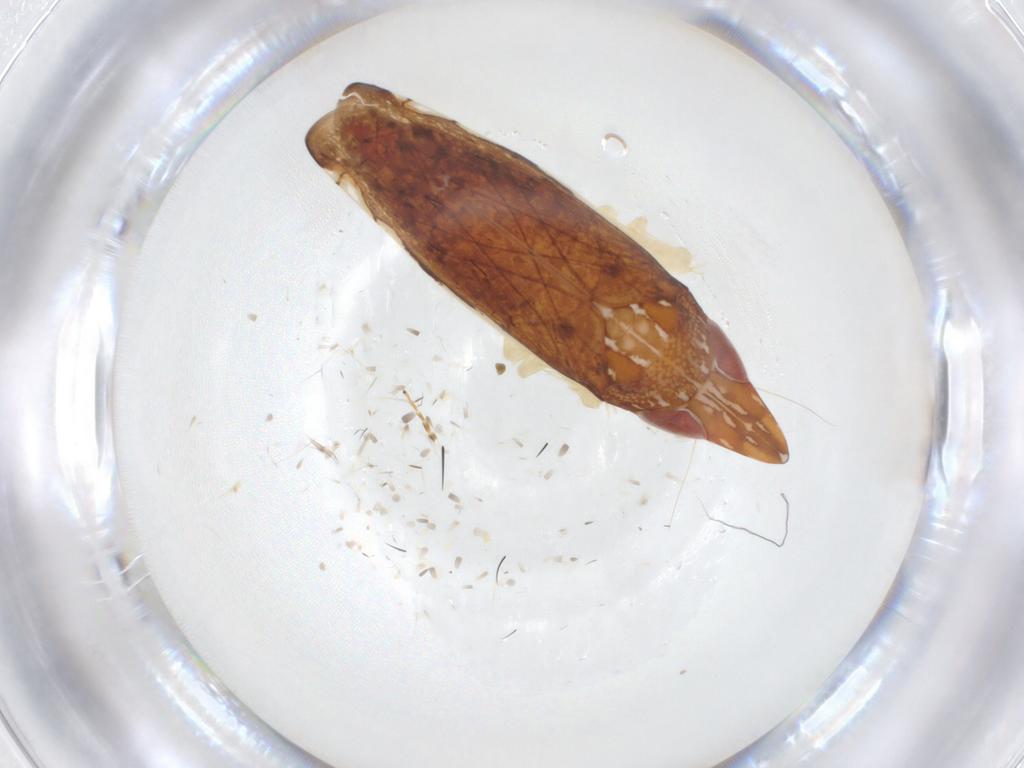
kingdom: Animalia
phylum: Arthropoda
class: Insecta
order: Hemiptera
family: Cicadellidae
